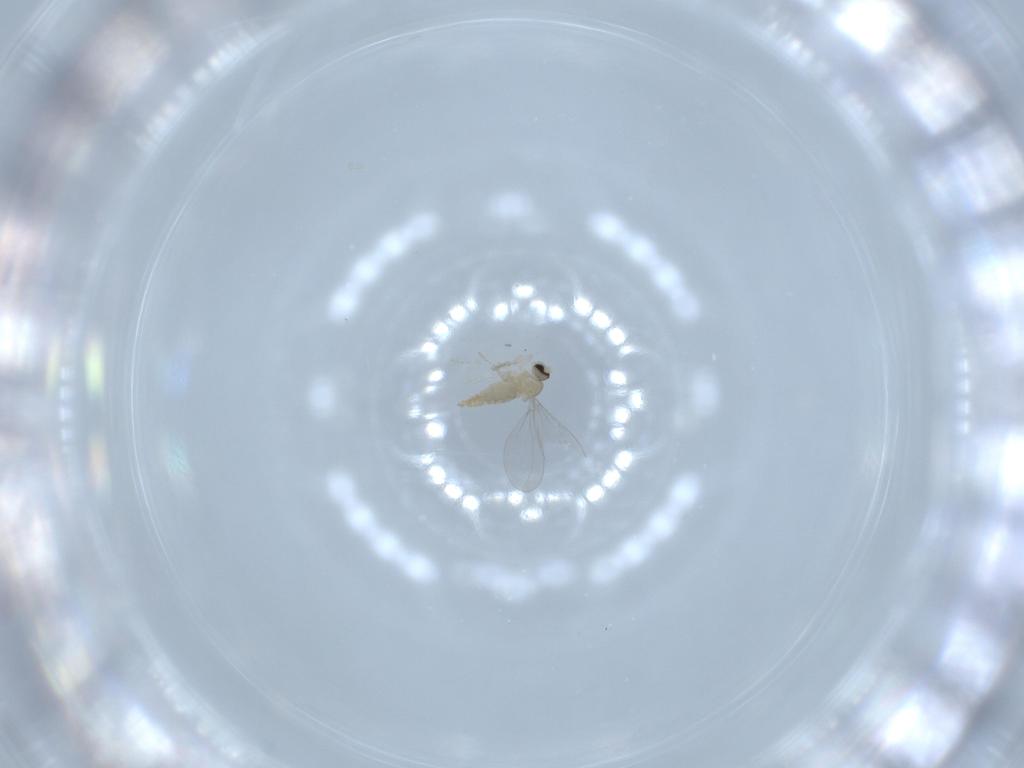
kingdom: Animalia
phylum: Arthropoda
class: Insecta
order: Diptera
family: Cecidomyiidae
